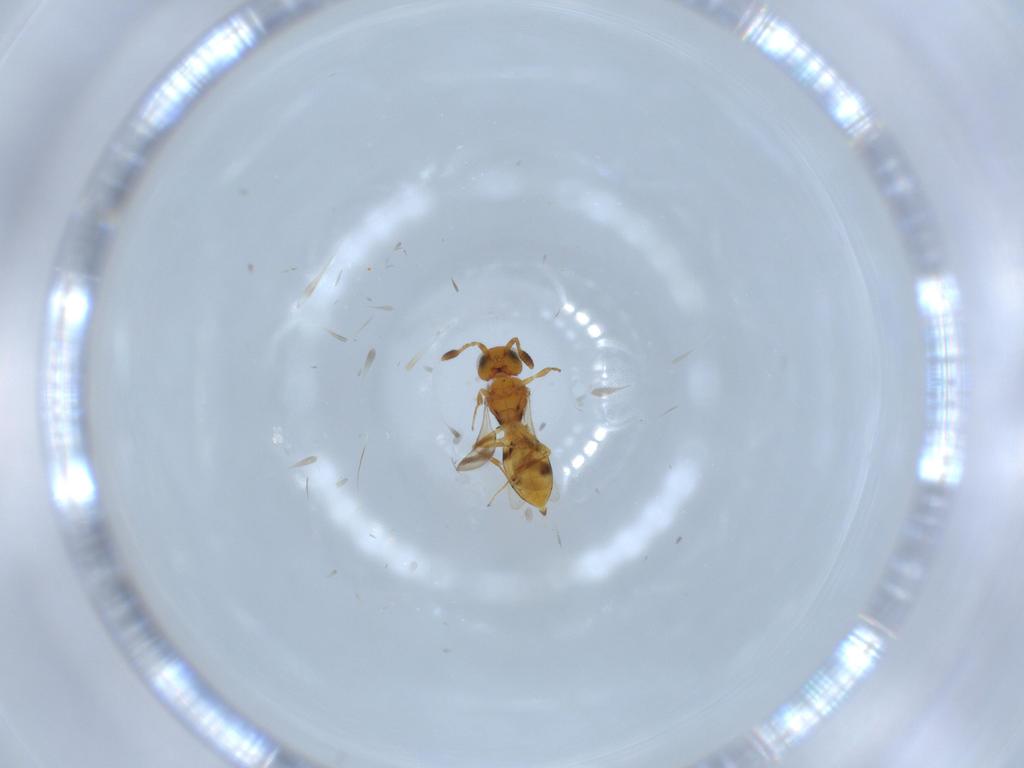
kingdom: Animalia
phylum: Arthropoda
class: Insecta
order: Hymenoptera
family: Scelionidae
